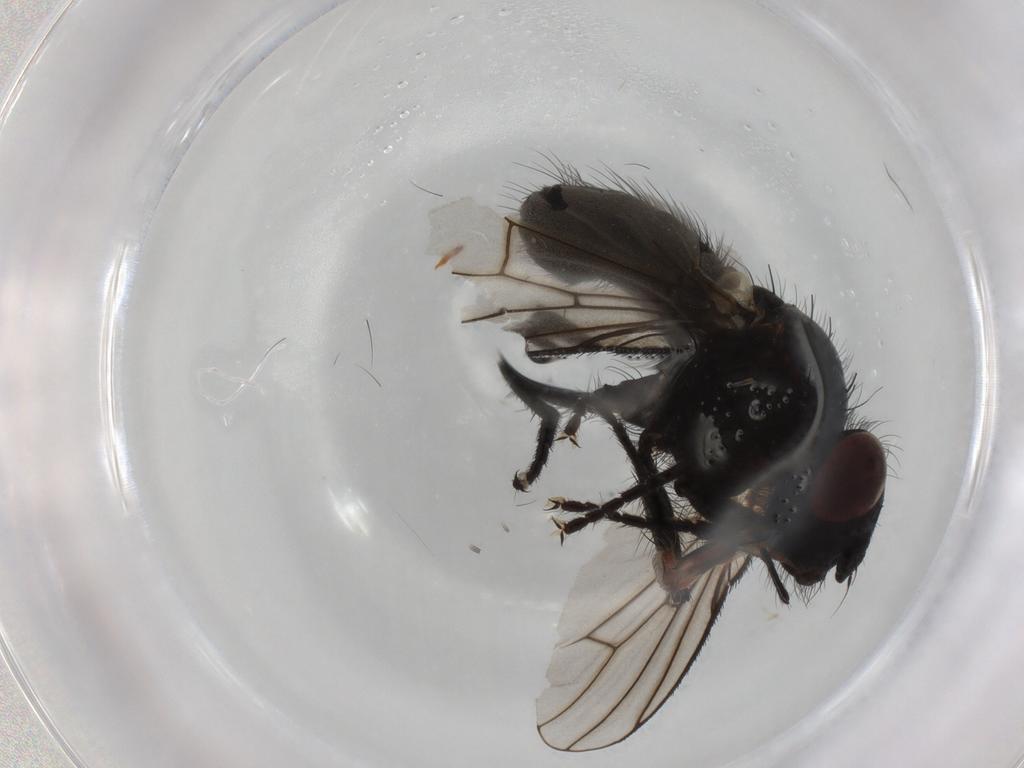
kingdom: Animalia
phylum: Arthropoda
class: Insecta
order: Diptera
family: Muscidae
